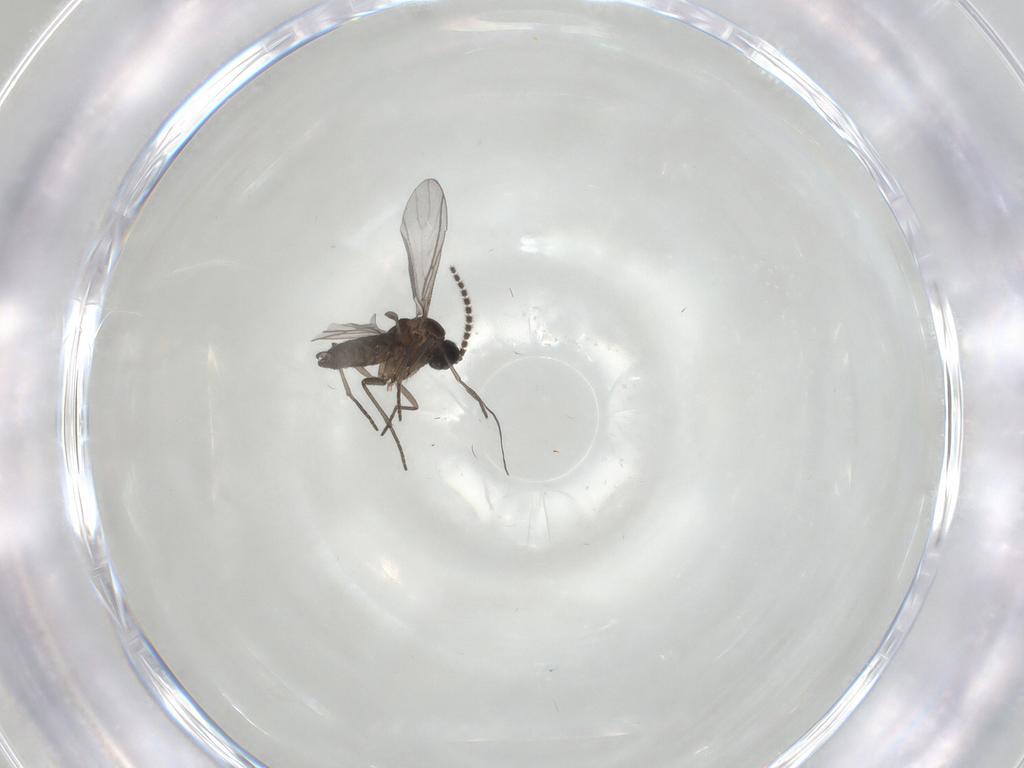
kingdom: Animalia
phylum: Arthropoda
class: Insecta
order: Diptera
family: Psychodidae
